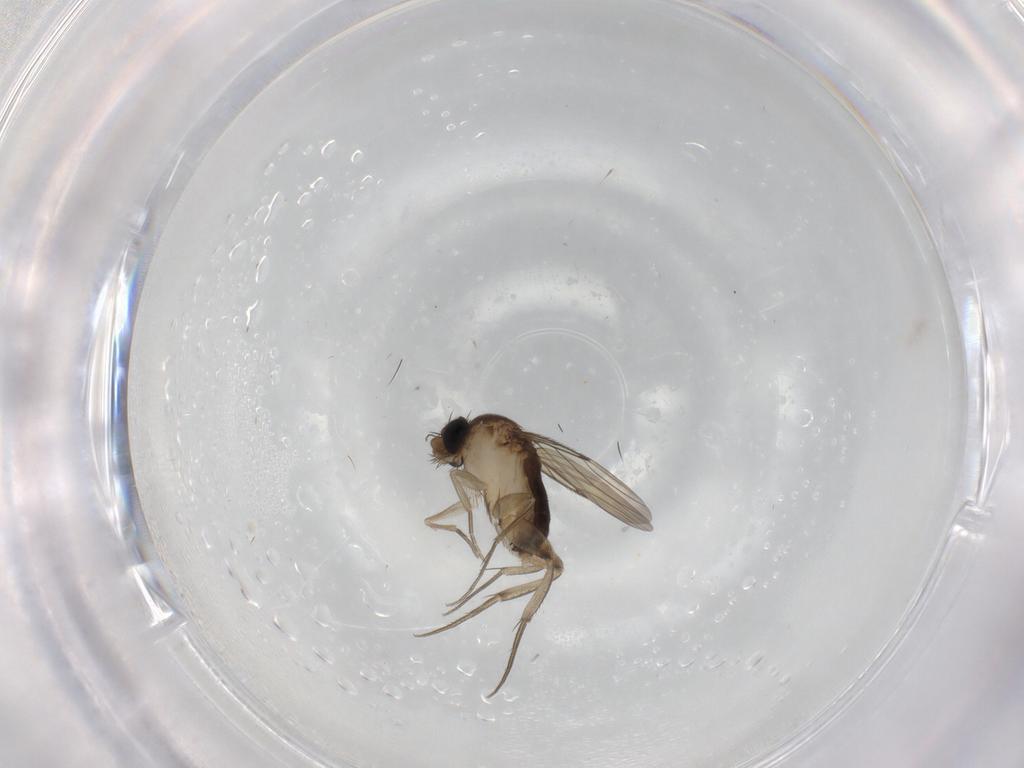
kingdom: Animalia
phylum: Arthropoda
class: Insecta
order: Diptera
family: Phoridae
